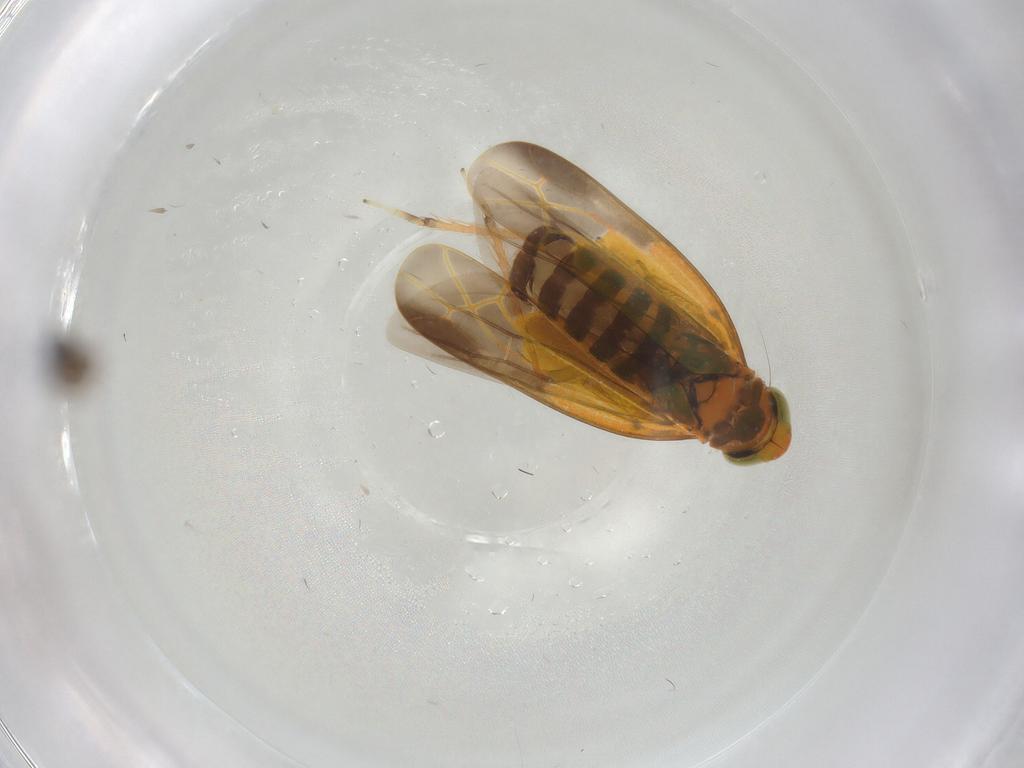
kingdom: Animalia
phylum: Arthropoda
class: Insecta
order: Hemiptera
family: Cicadellidae
